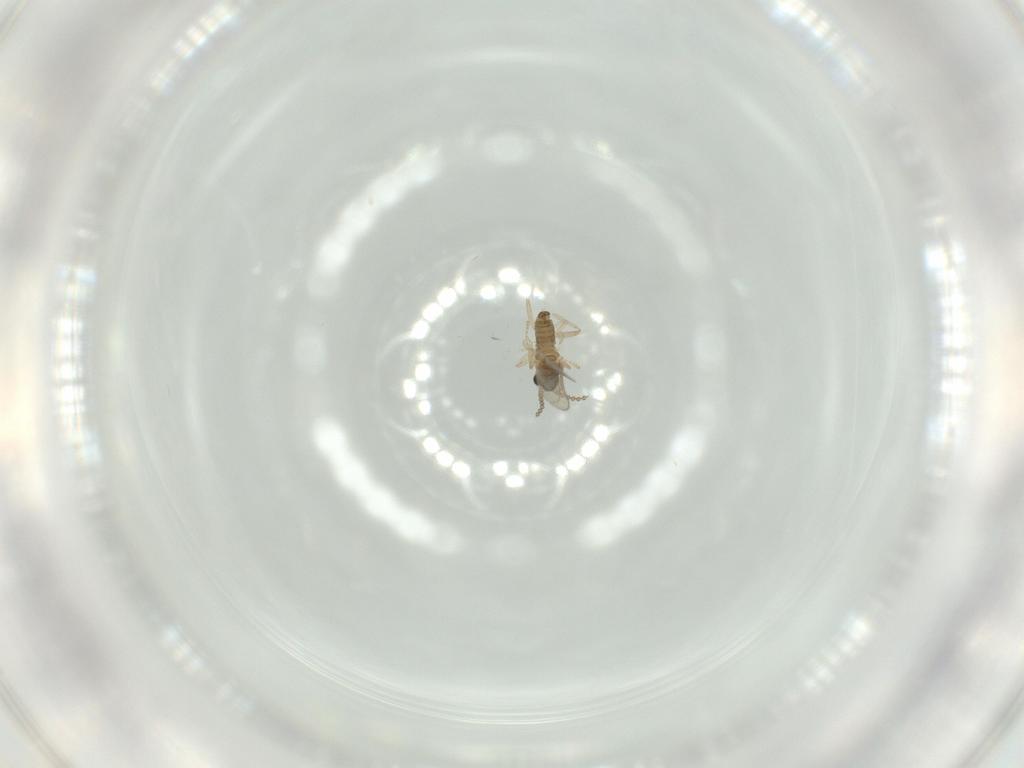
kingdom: Animalia
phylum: Arthropoda
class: Insecta
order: Diptera
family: Cecidomyiidae
